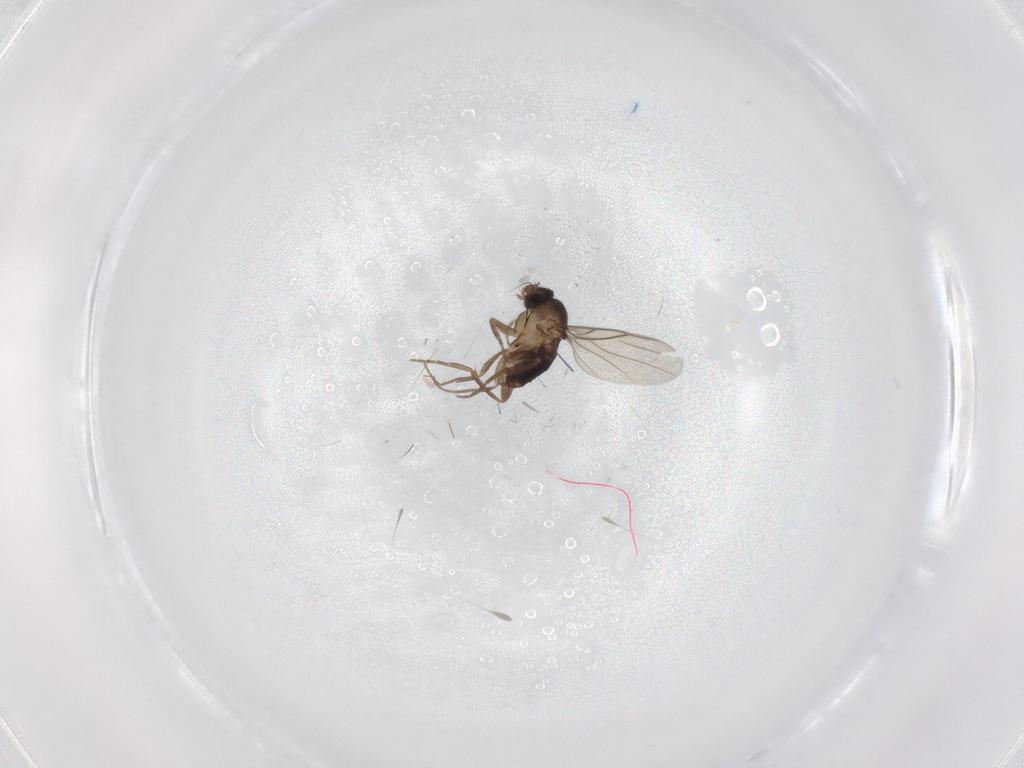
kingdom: Animalia
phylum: Arthropoda
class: Insecta
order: Diptera
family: Phoridae
